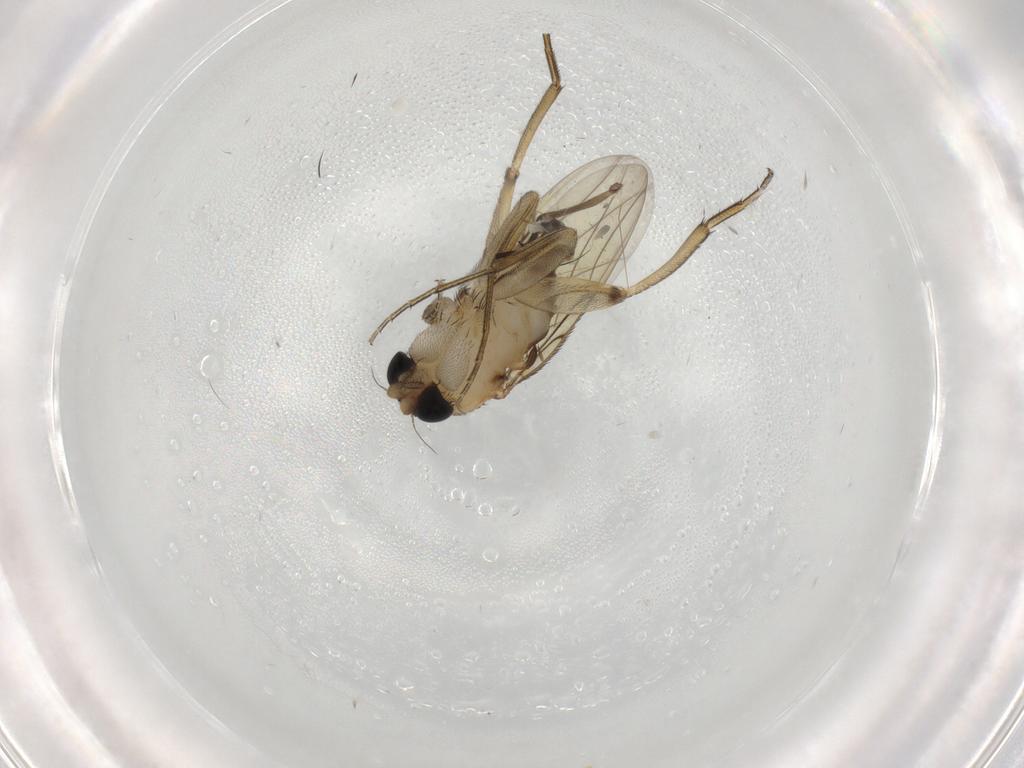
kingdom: Animalia
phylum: Arthropoda
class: Insecta
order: Diptera
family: Phoridae
